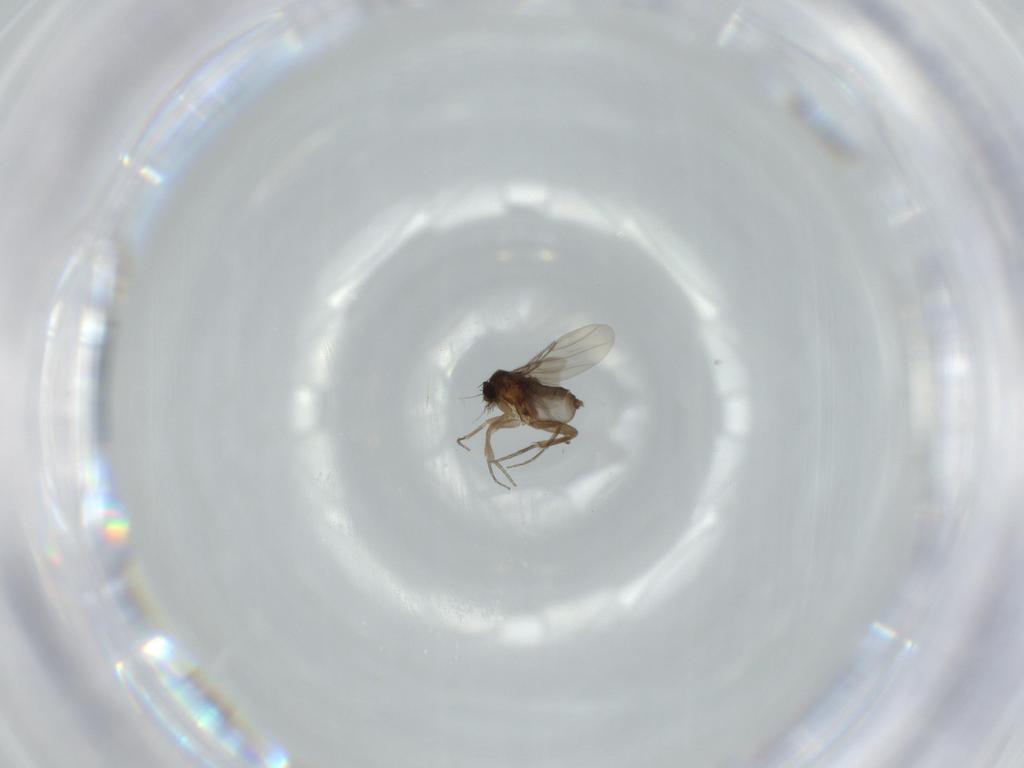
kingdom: Animalia
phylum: Arthropoda
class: Insecta
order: Diptera
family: Phoridae
